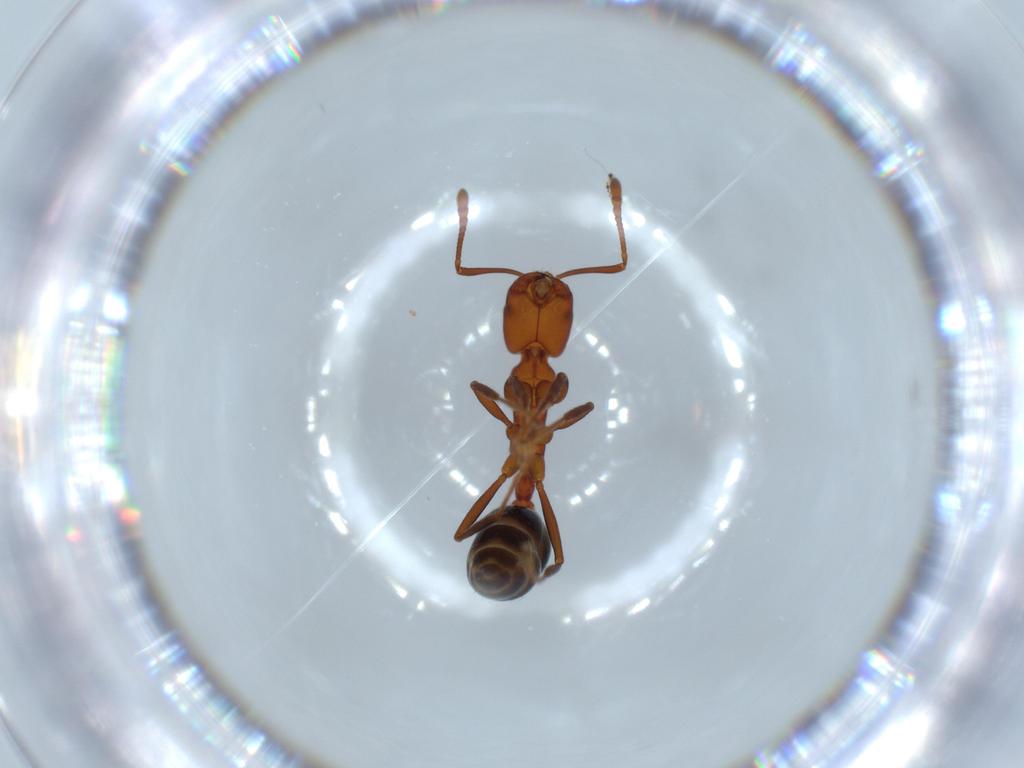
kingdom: Animalia
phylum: Arthropoda
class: Insecta
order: Hymenoptera
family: Formicidae
